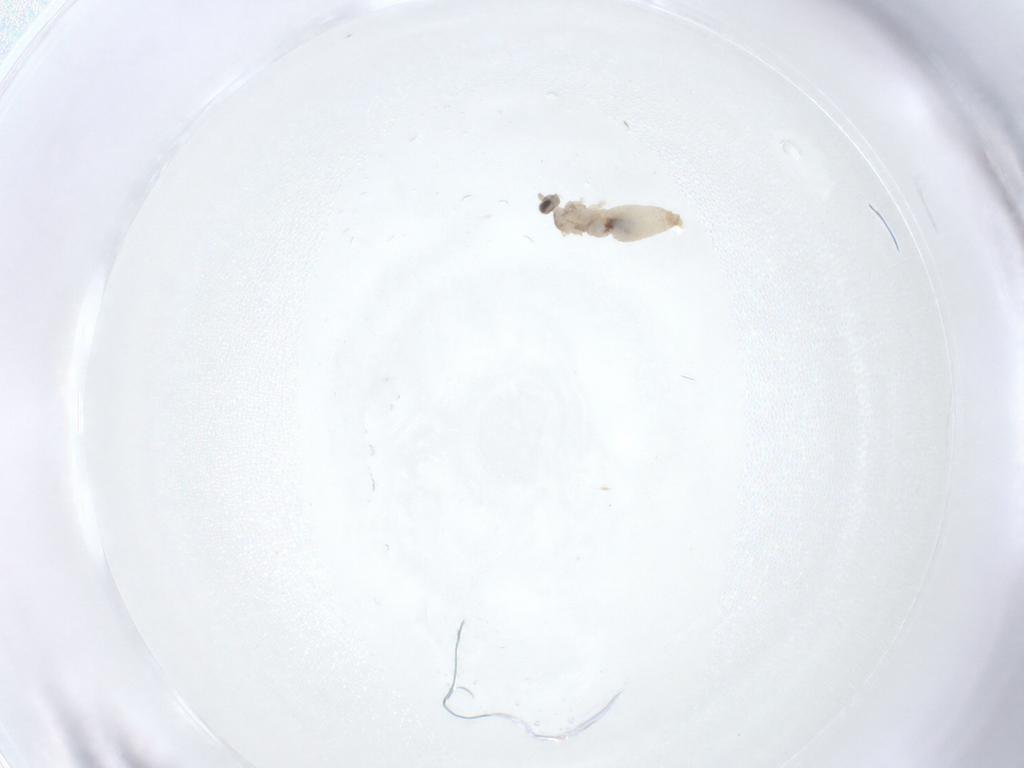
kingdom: Animalia
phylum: Arthropoda
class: Insecta
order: Diptera
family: Cecidomyiidae
